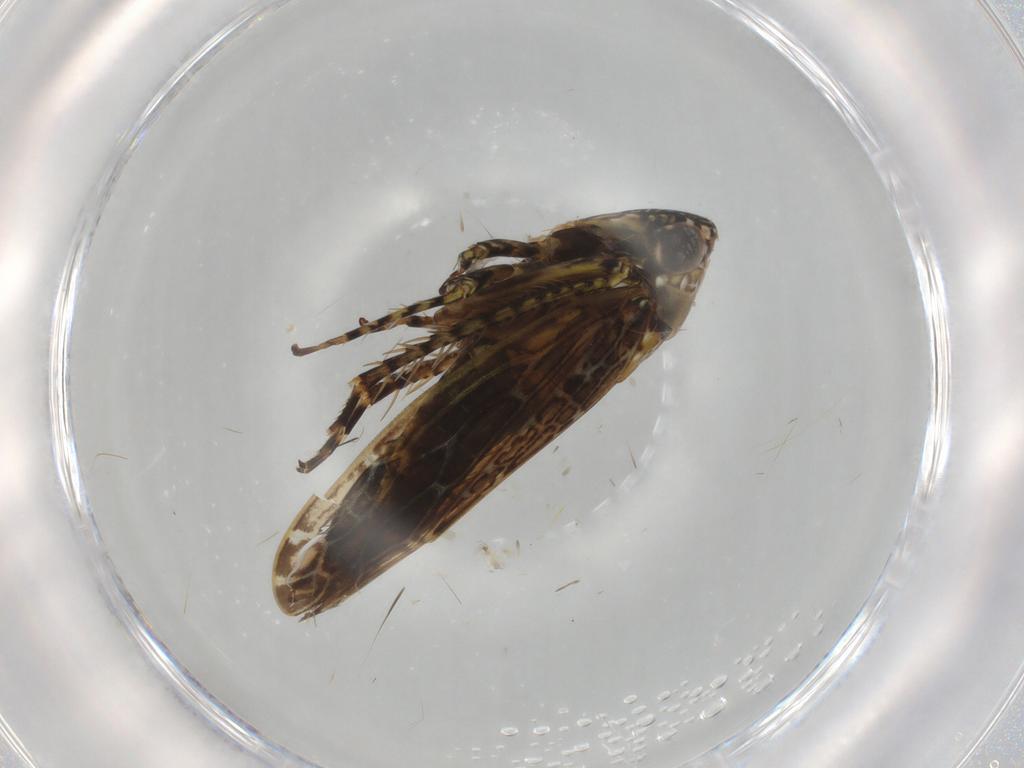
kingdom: Animalia
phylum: Arthropoda
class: Insecta
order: Hemiptera
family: Cicadellidae
